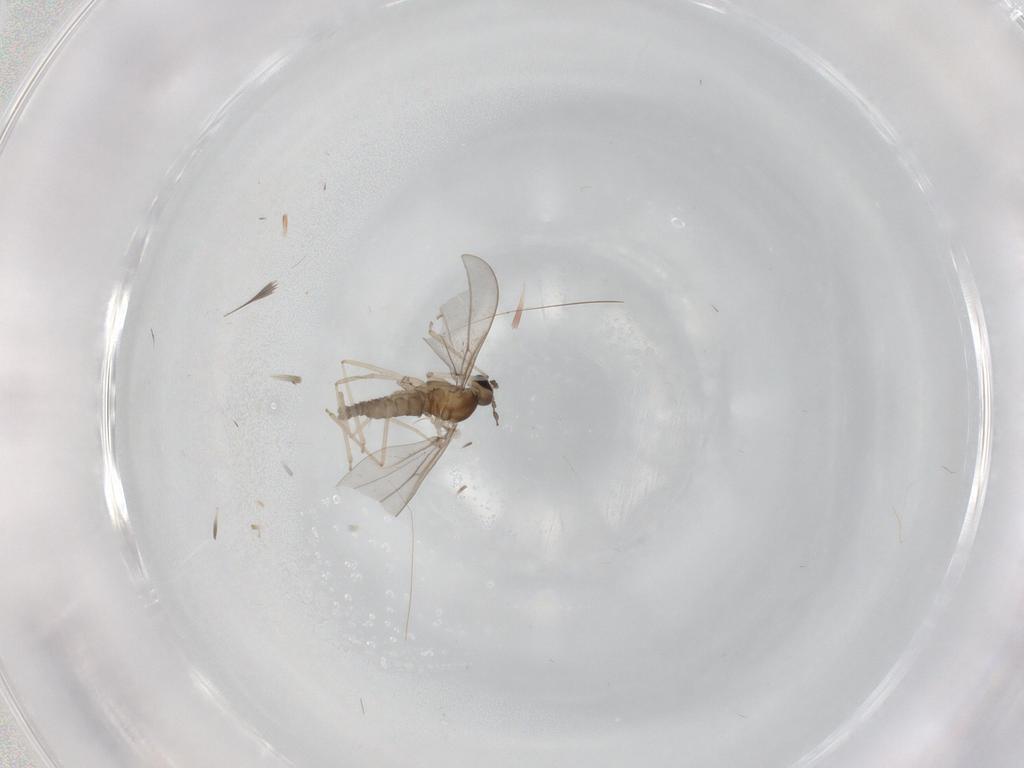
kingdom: Animalia
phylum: Arthropoda
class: Insecta
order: Diptera
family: Cecidomyiidae
